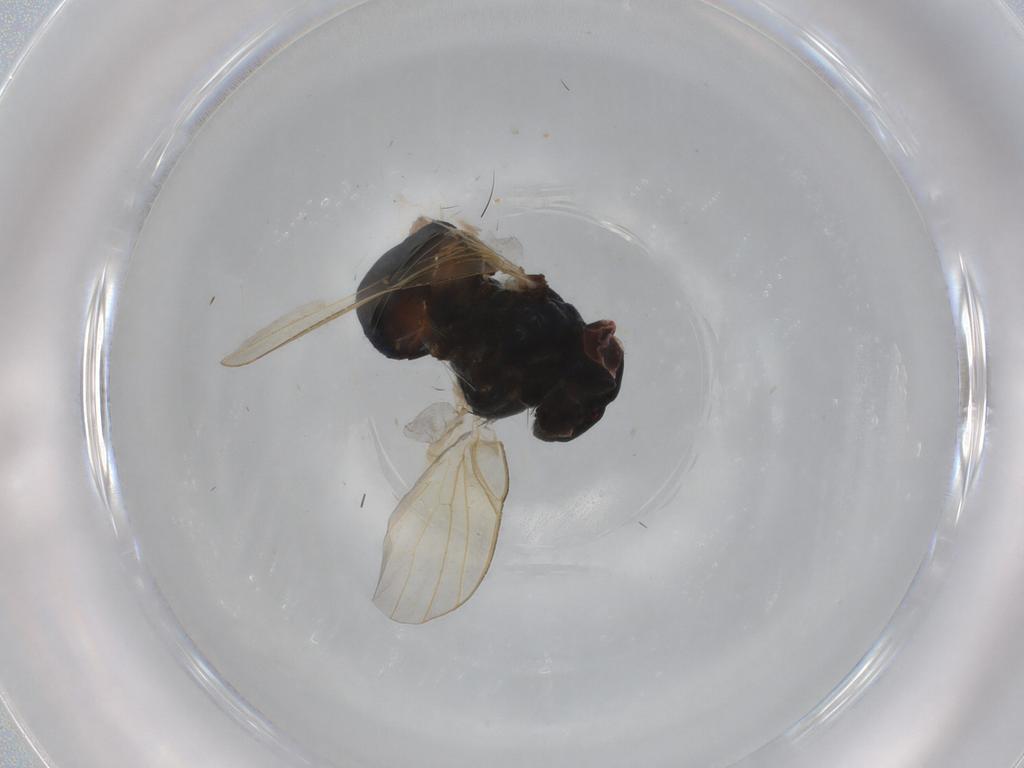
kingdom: Animalia
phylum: Arthropoda
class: Insecta
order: Diptera
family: Cecidomyiidae
